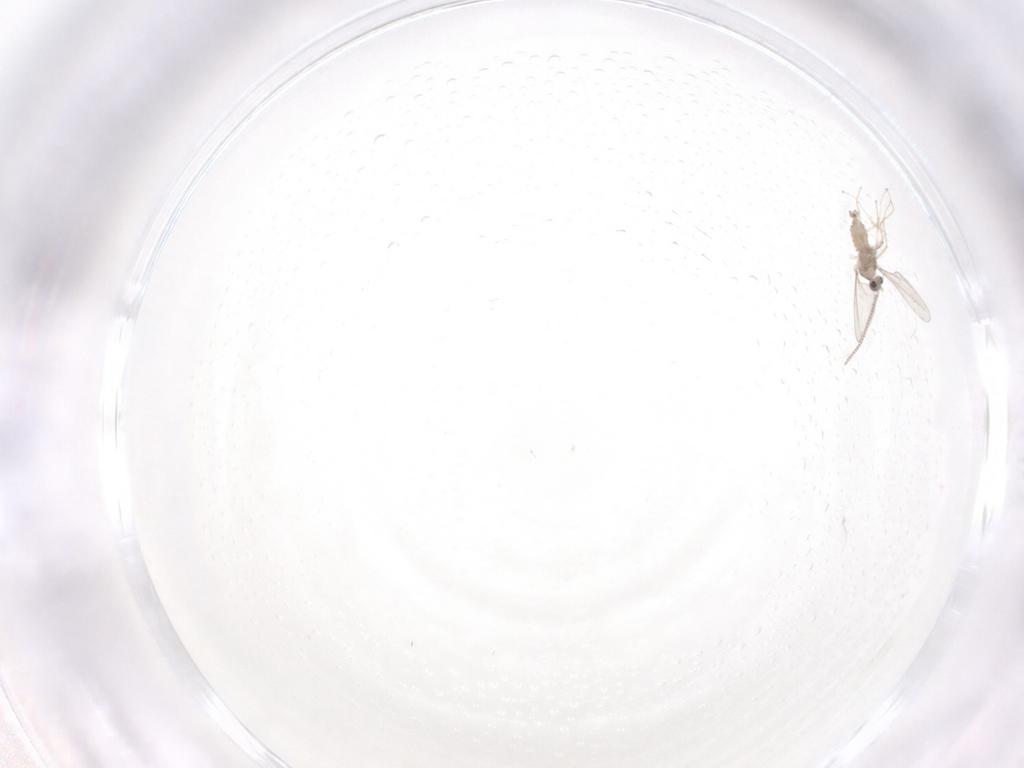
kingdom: Animalia
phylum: Arthropoda
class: Insecta
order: Diptera
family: Cecidomyiidae
